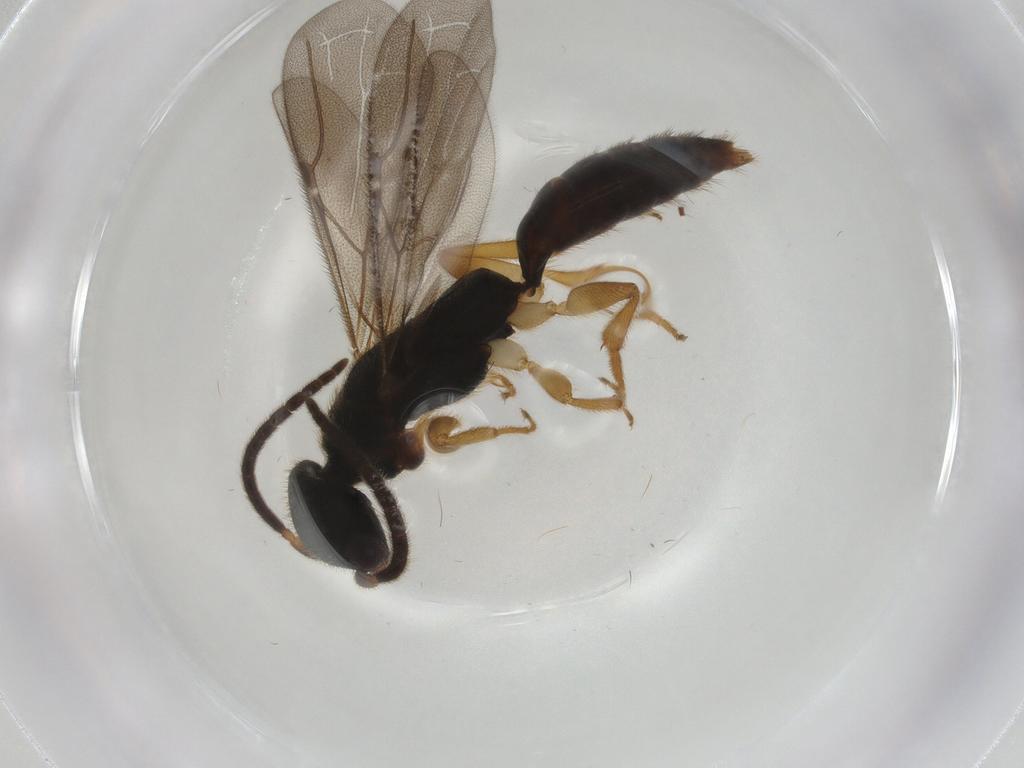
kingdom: Animalia
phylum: Arthropoda
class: Insecta
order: Hymenoptera
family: Bethylidae
